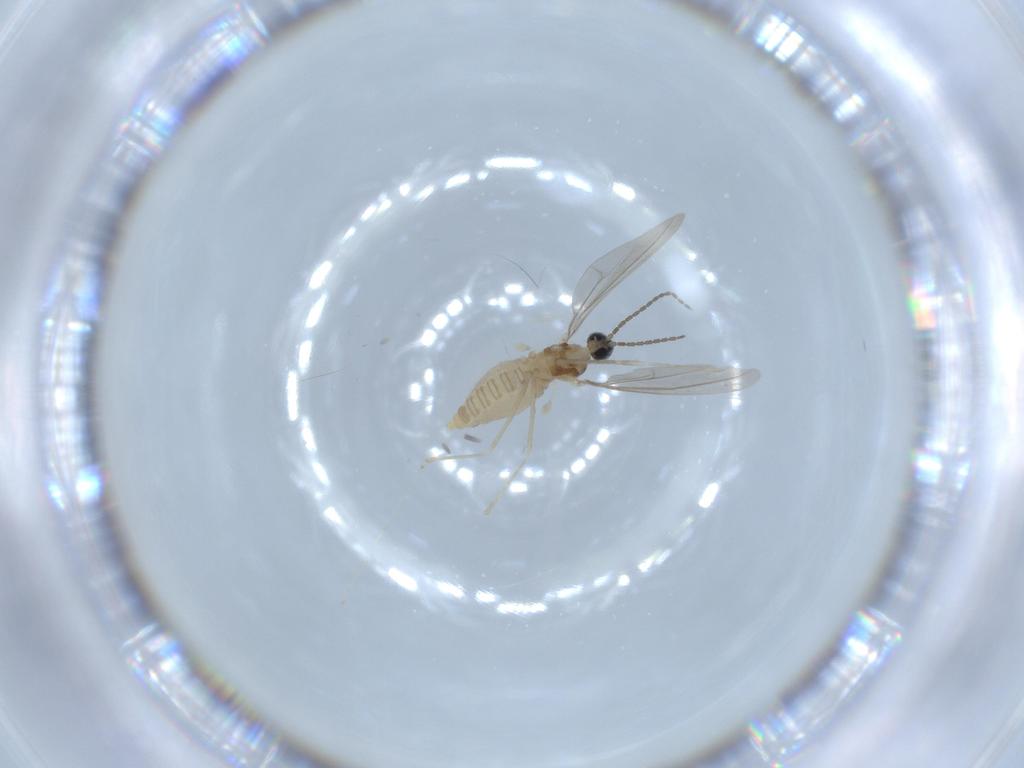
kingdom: Animalia
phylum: Arthropoda
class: Insecta
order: Diptera
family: Cecidomyiidae
